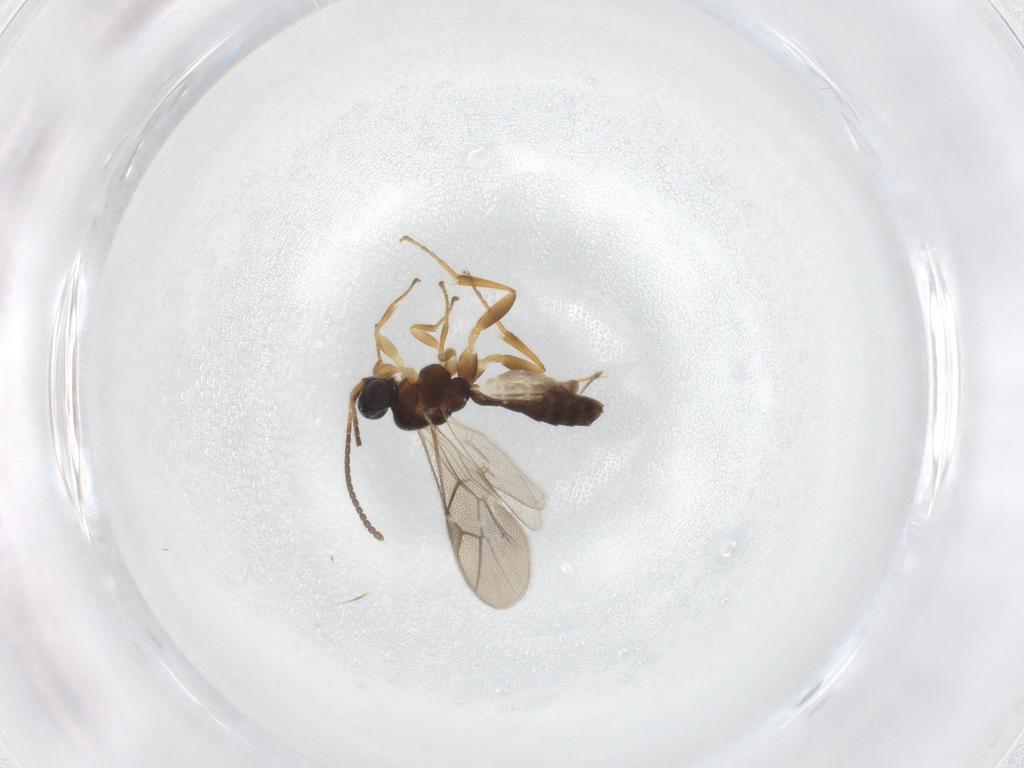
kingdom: Animalia
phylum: Arthropoda
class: Insecta
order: Hymenoptera
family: Ichneumonidae
